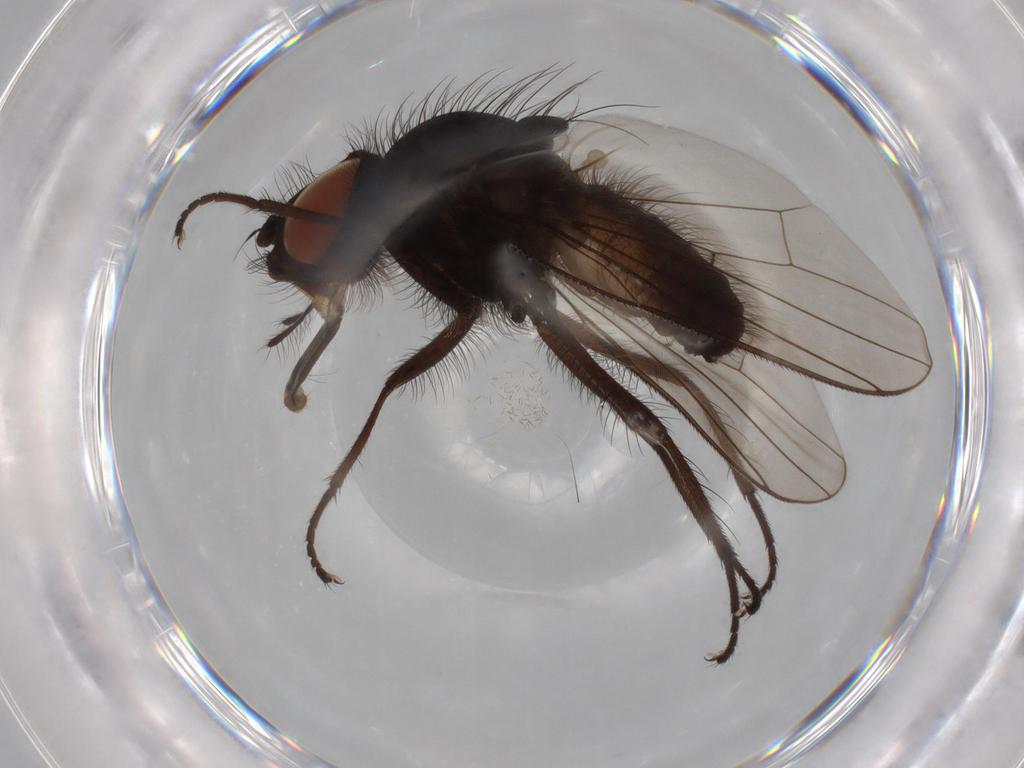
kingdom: Animalia
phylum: Arthropoda
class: Insecta
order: Diptera
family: Anthomyiidae
